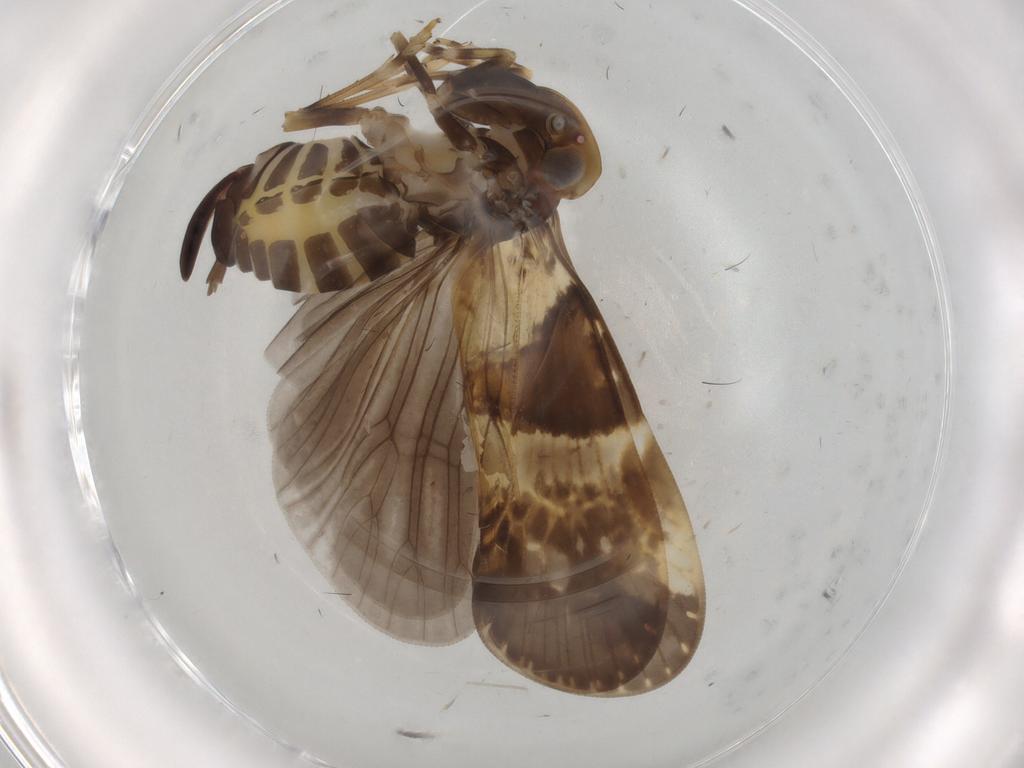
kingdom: Animalia
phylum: Arthropoda
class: Insecta
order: Hemiptera
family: Cixiidae
